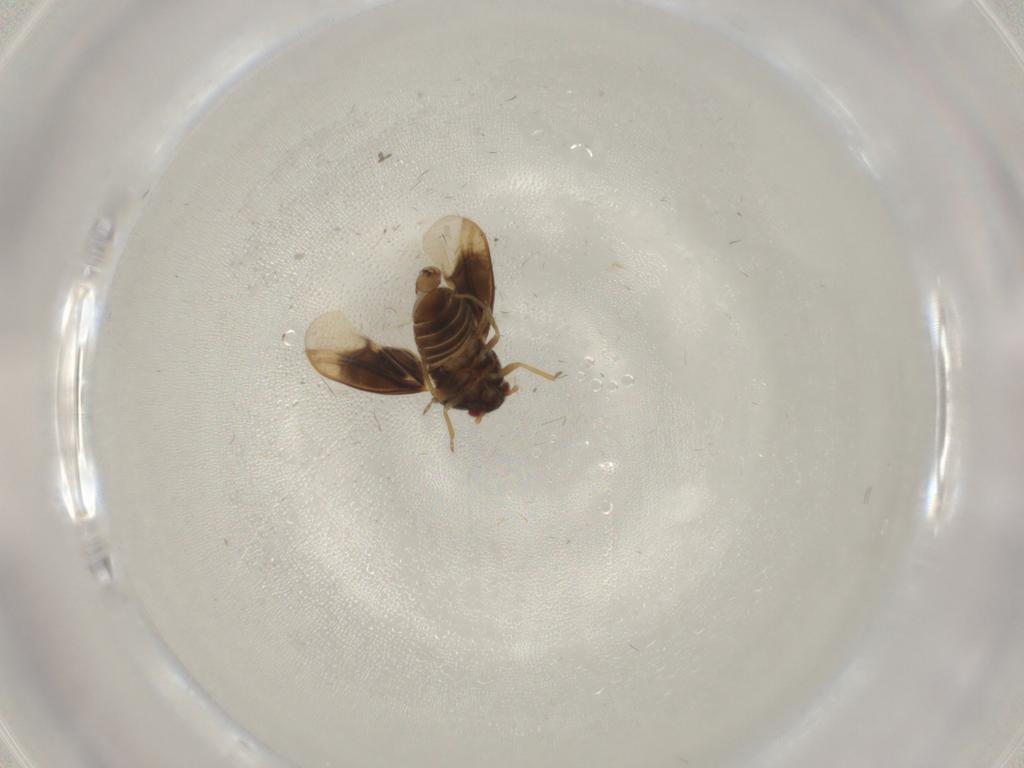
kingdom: Animalia
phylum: Arthropoda
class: Insecta
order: Hemiptera
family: Schizopteridae
